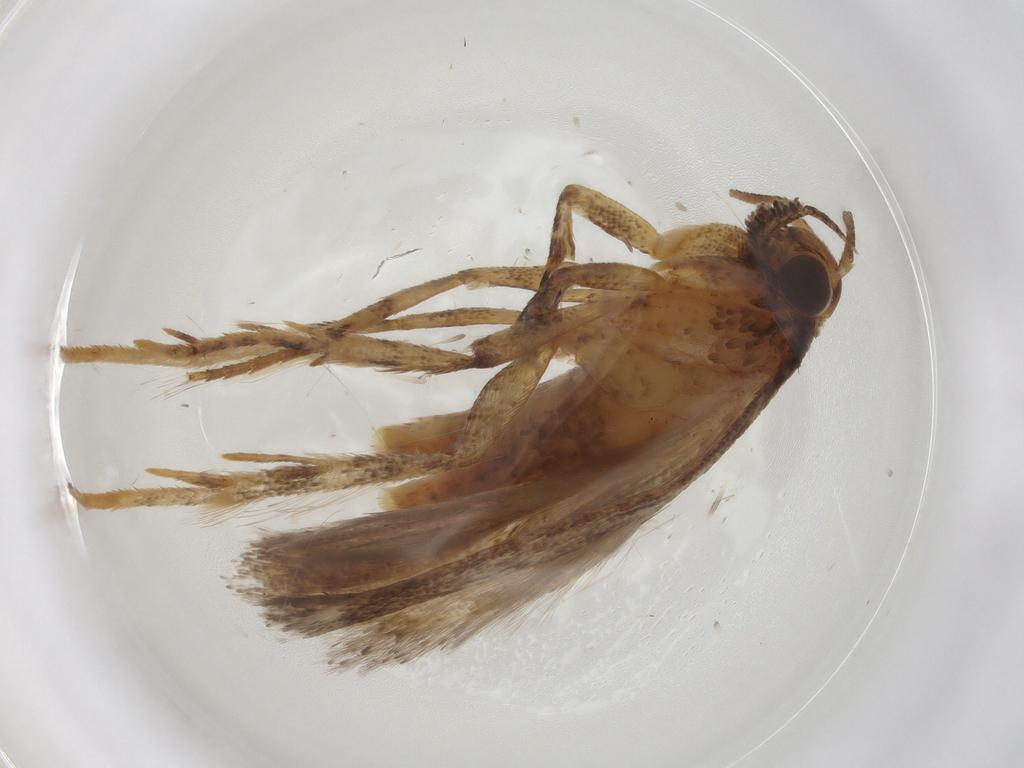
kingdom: Animalia
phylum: Arthropoda
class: Insecta
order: Lepidoptera
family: Gelechiidae
